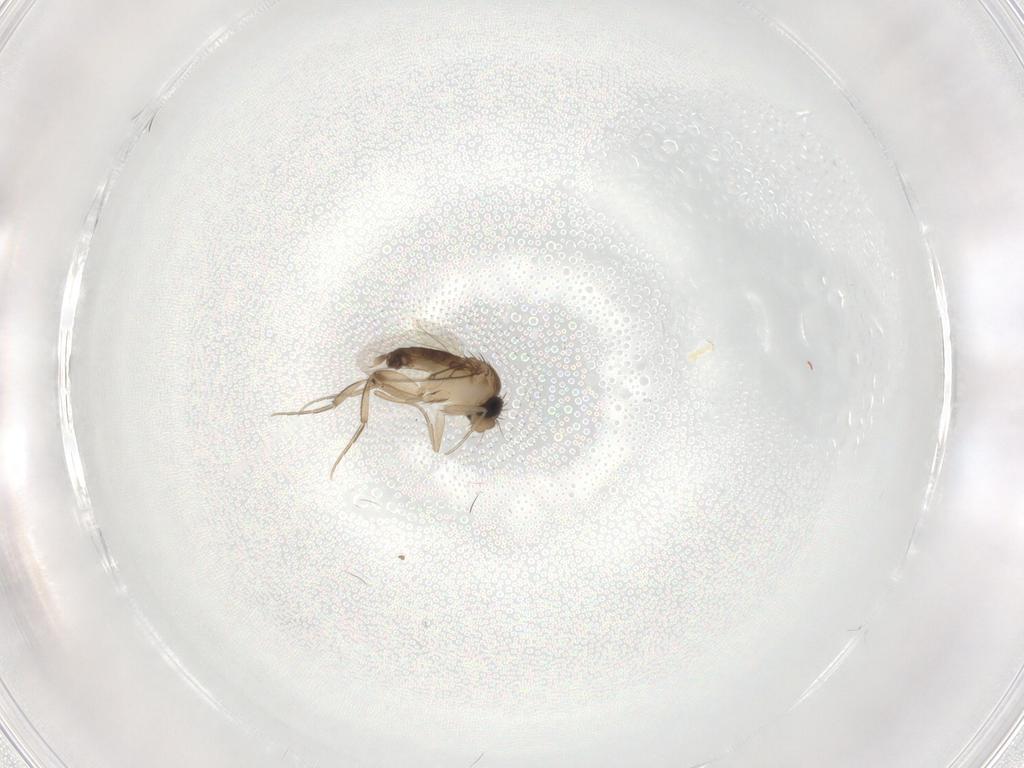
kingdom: Animalia
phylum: Arthropoda
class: Insecta
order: Diptera
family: Phoridae
